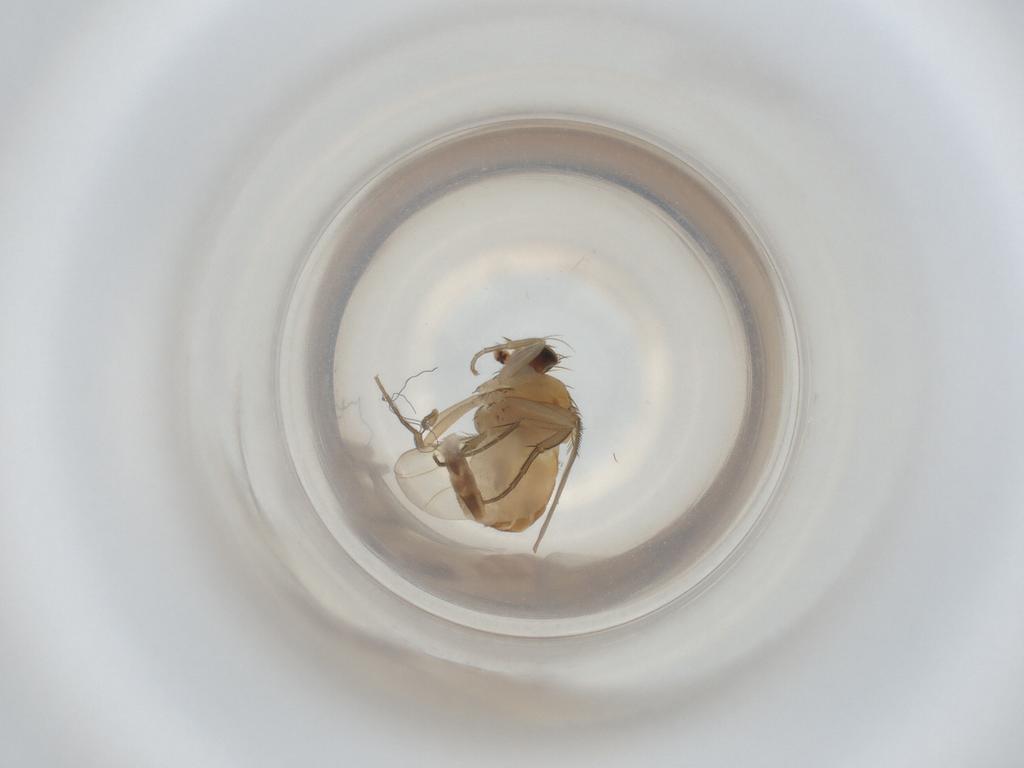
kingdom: Animalia
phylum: Arthropoda
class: Insecta
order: Diptera
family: Phoridae
